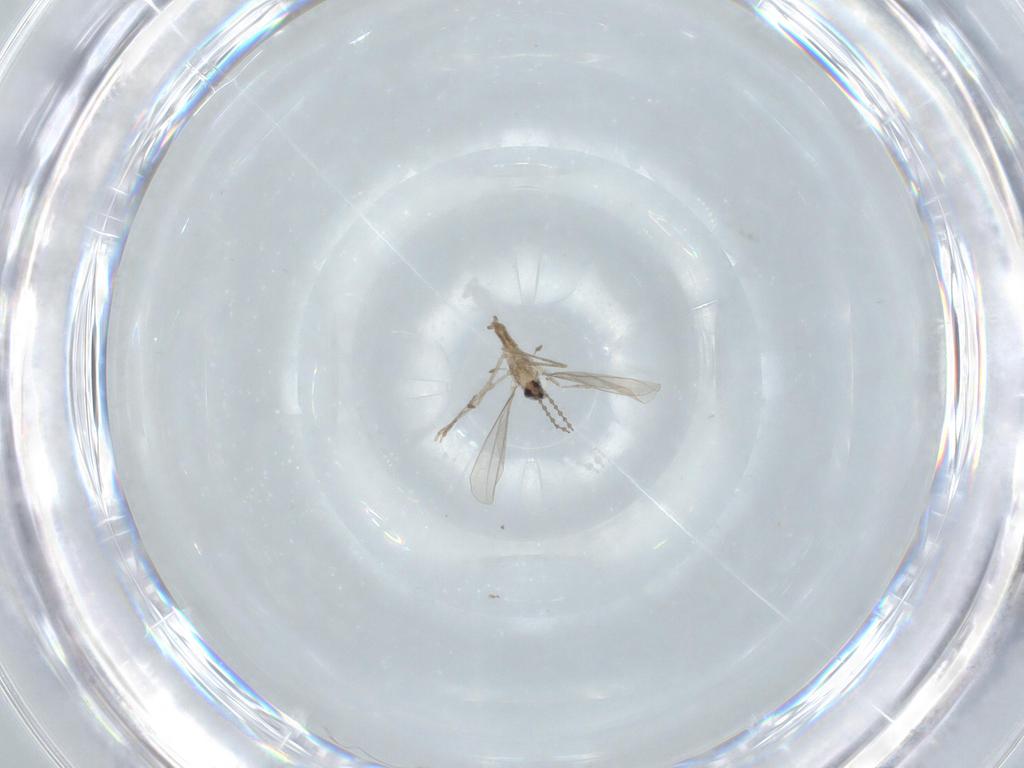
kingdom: Animalia
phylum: Arthropoda
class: Insecta
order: Diptera
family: Cecidomyiidae
